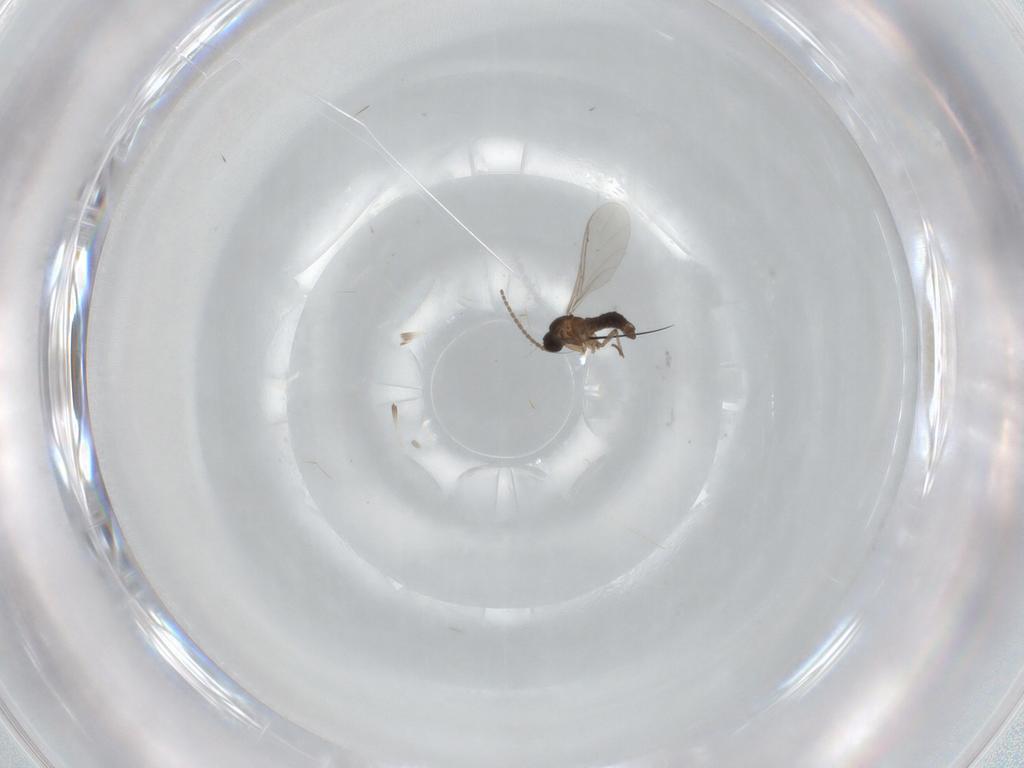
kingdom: Animalia
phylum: Arthropoda
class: Insecta
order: Diptera
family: Sciaridae
